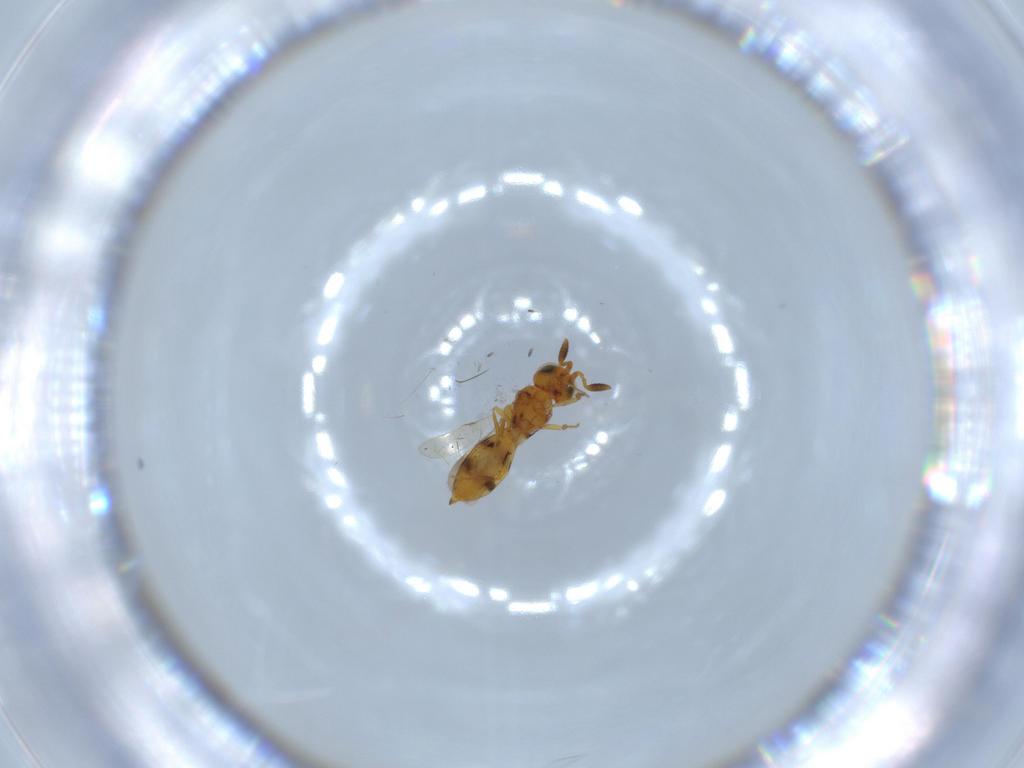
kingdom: Animalia
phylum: Arthropoda
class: Insecta
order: Hymenoptera
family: Scelionidae
